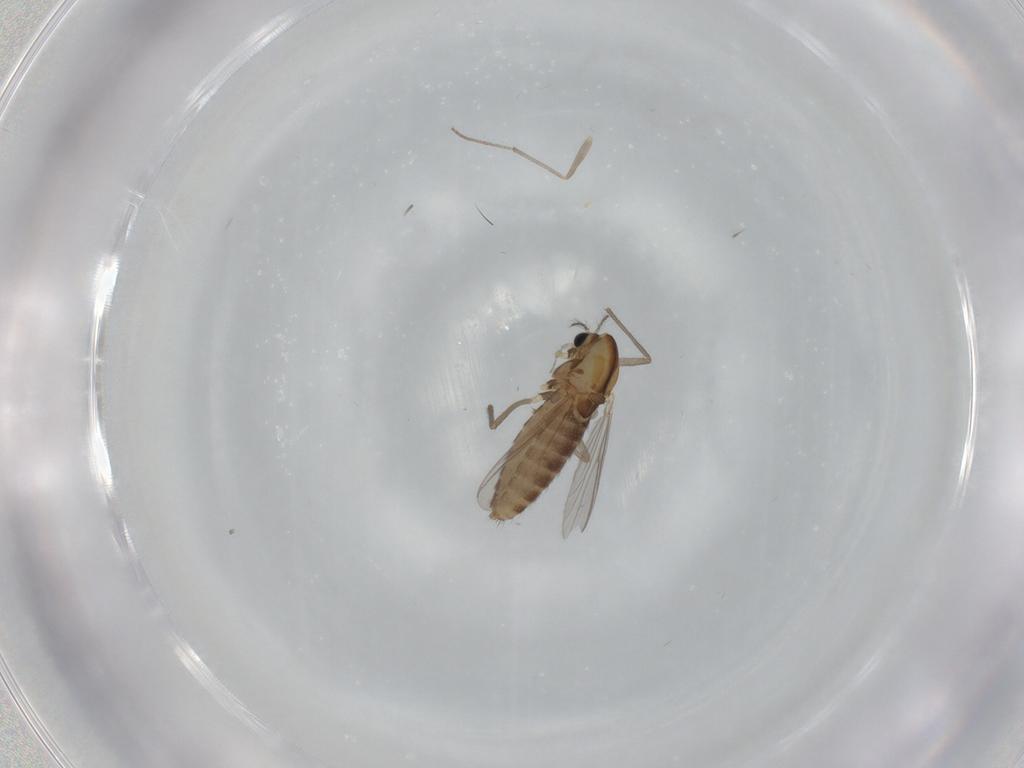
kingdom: Animalia
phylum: Arthropoda
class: Insecta
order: Diptera
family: Chironomidae
